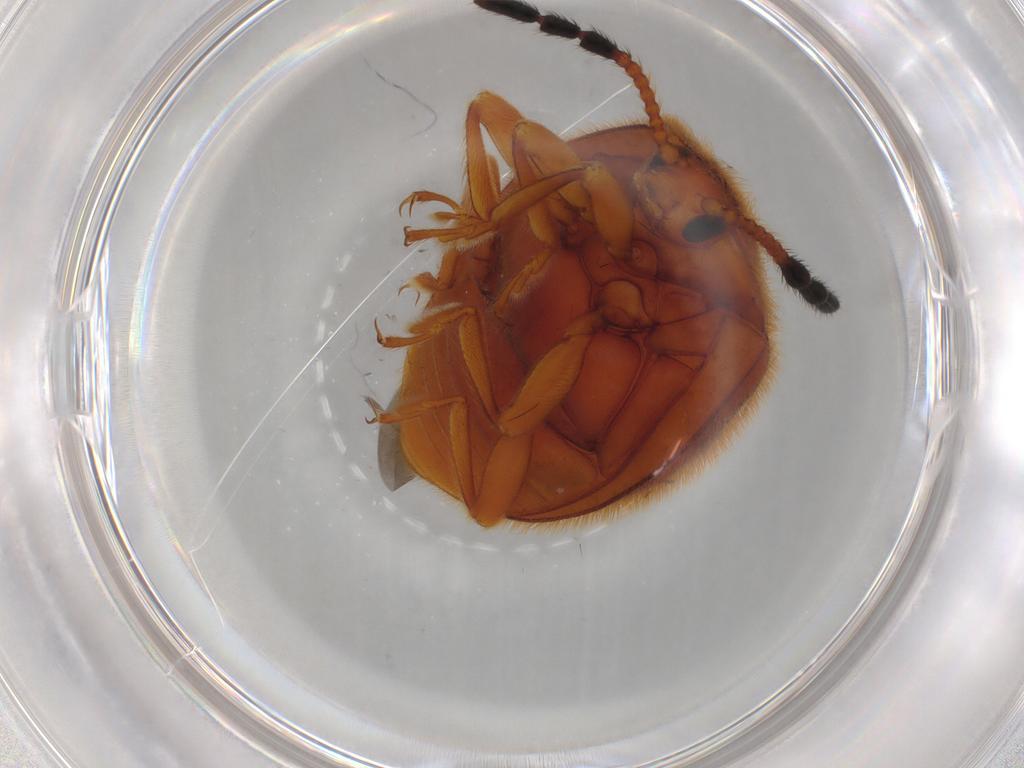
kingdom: Animalia
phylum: Arthropoda
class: Insecta
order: Coleoptera
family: Endomychidae
